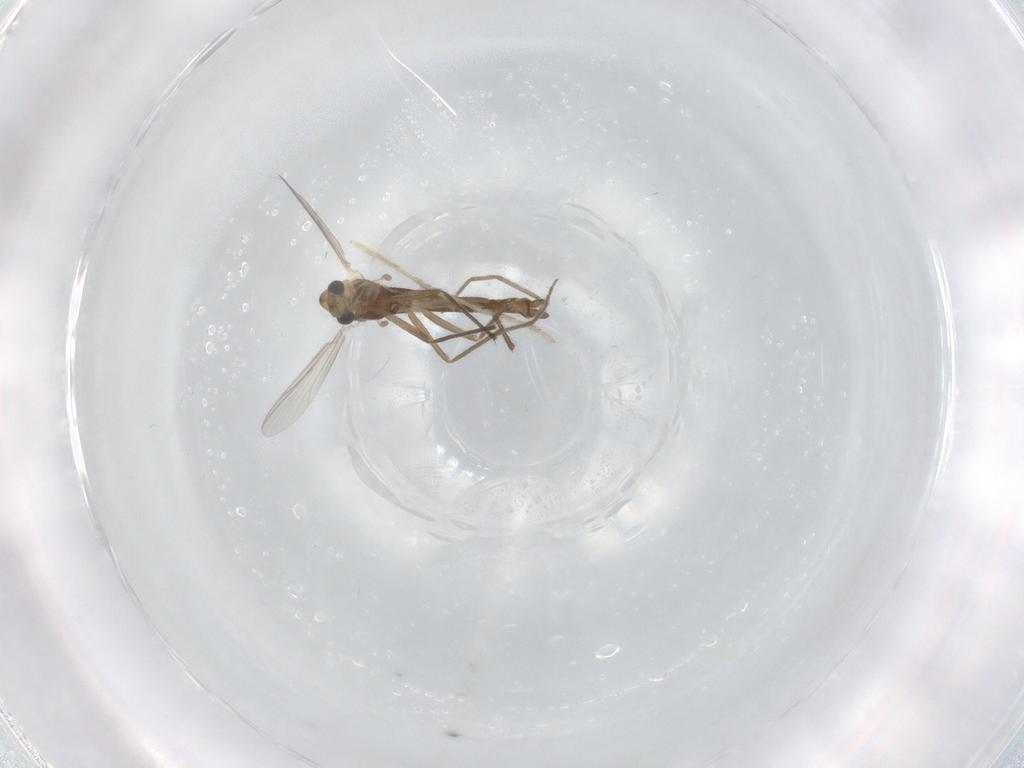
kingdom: Animalia
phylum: Arthropoda
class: Insecta
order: Diptera
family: Chironomidae
